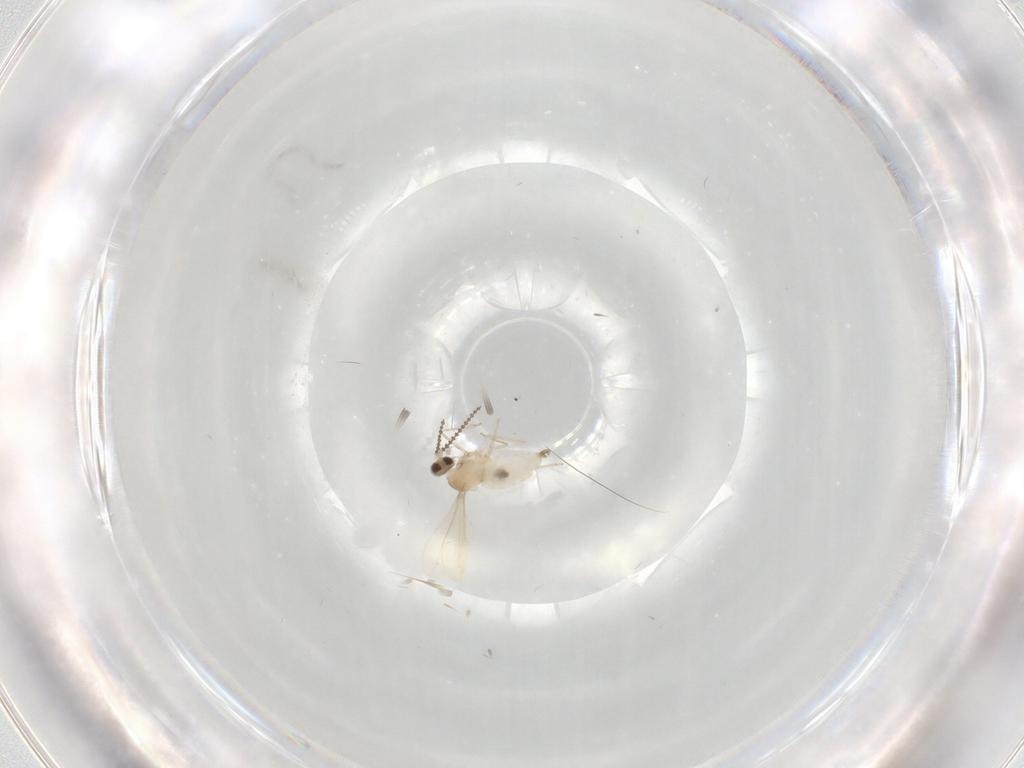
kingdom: Animalia
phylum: Arthropoda
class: Insecta
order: Diptera
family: Cecidomyiidae
